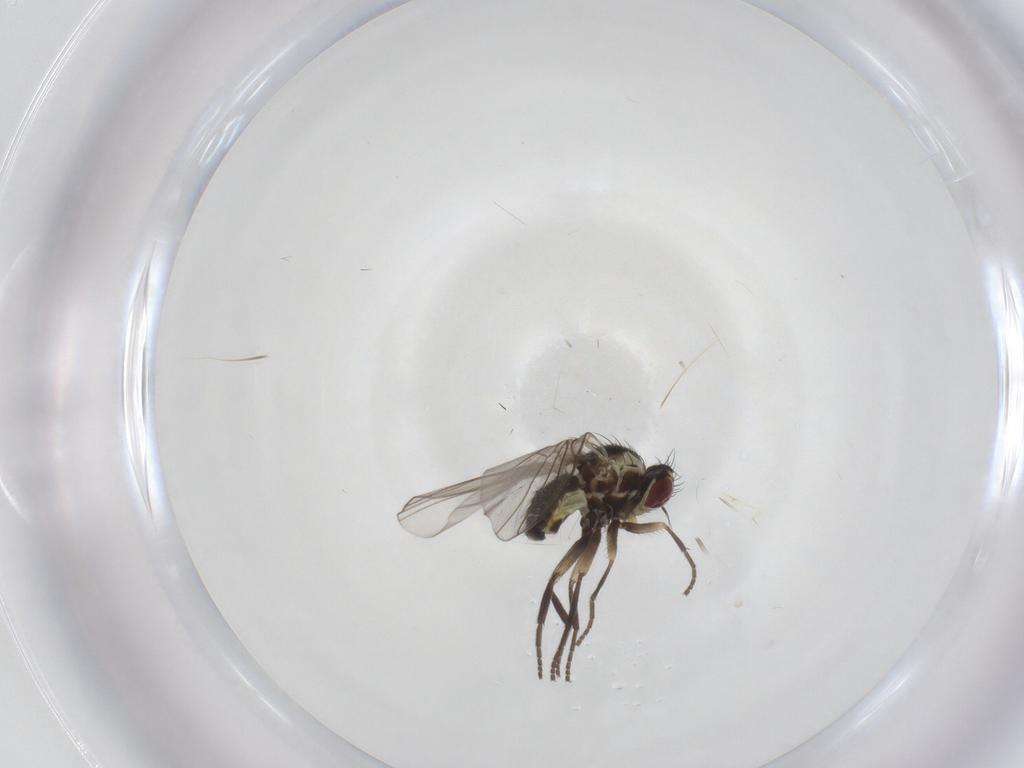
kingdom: Animalia
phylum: Arthropoda
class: Insecta
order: Diptera
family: Agromyzidae
